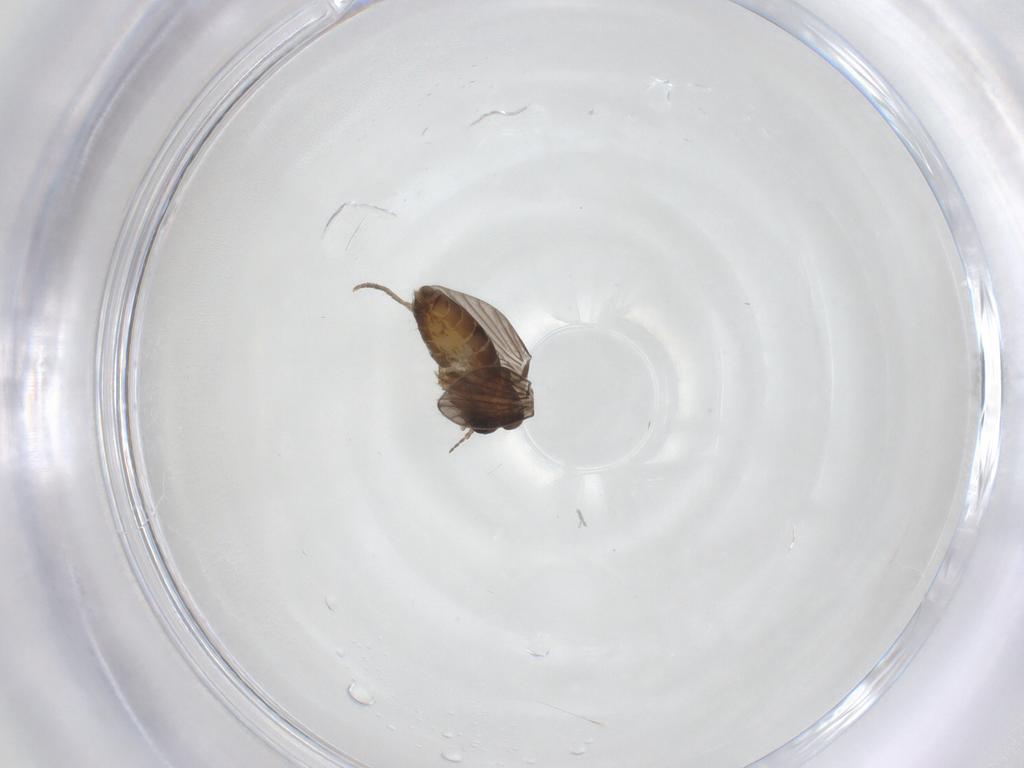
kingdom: Animalia
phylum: Arthropoda
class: Insecta
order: Diptera
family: Psychodidae
